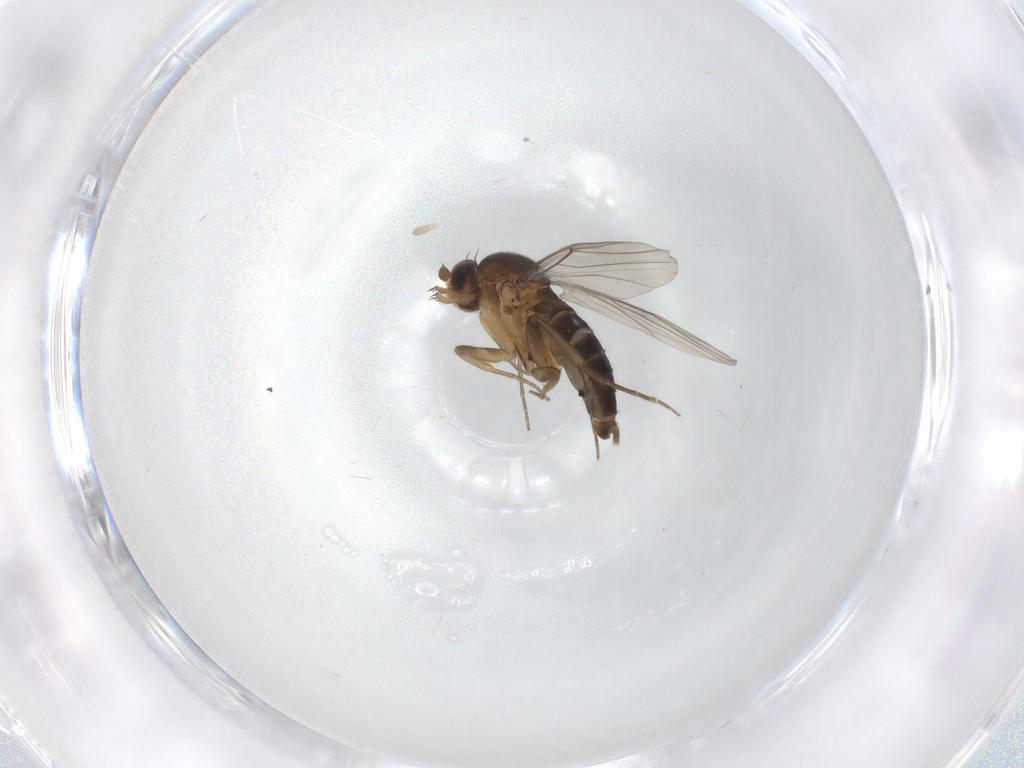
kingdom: Animalia
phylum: Arthropoda
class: Insecta
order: Diptera
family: Phoridae
